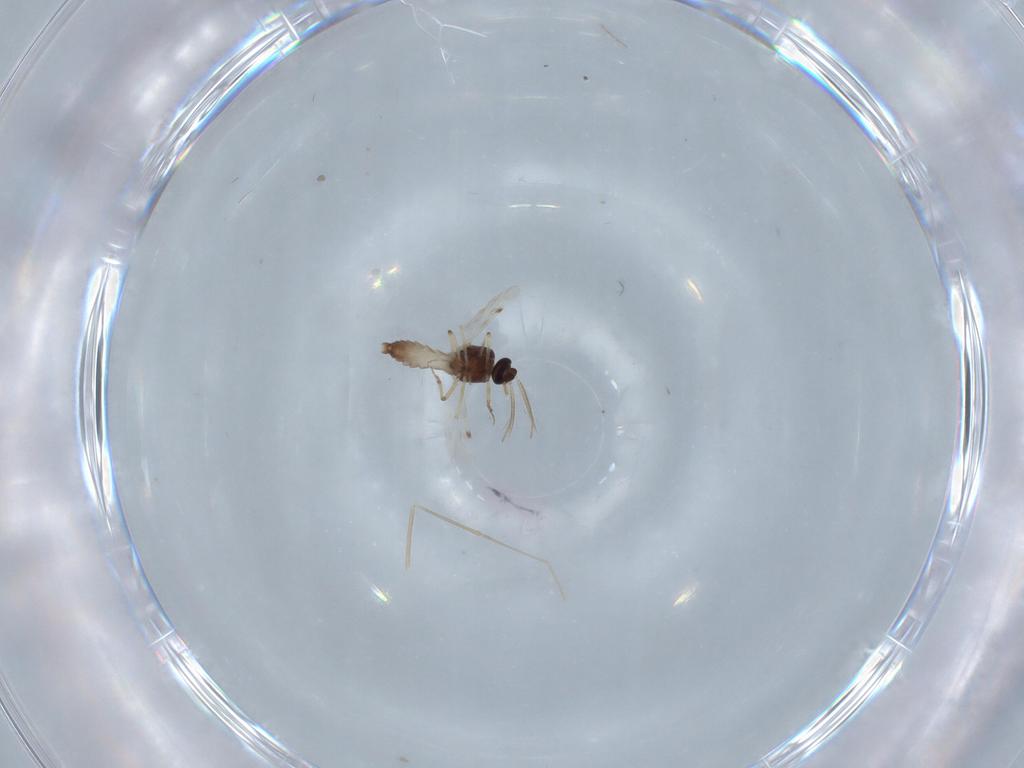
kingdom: Animalia
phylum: Arthropoda
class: Insecta
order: Diptera
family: Cecidomyiidae
